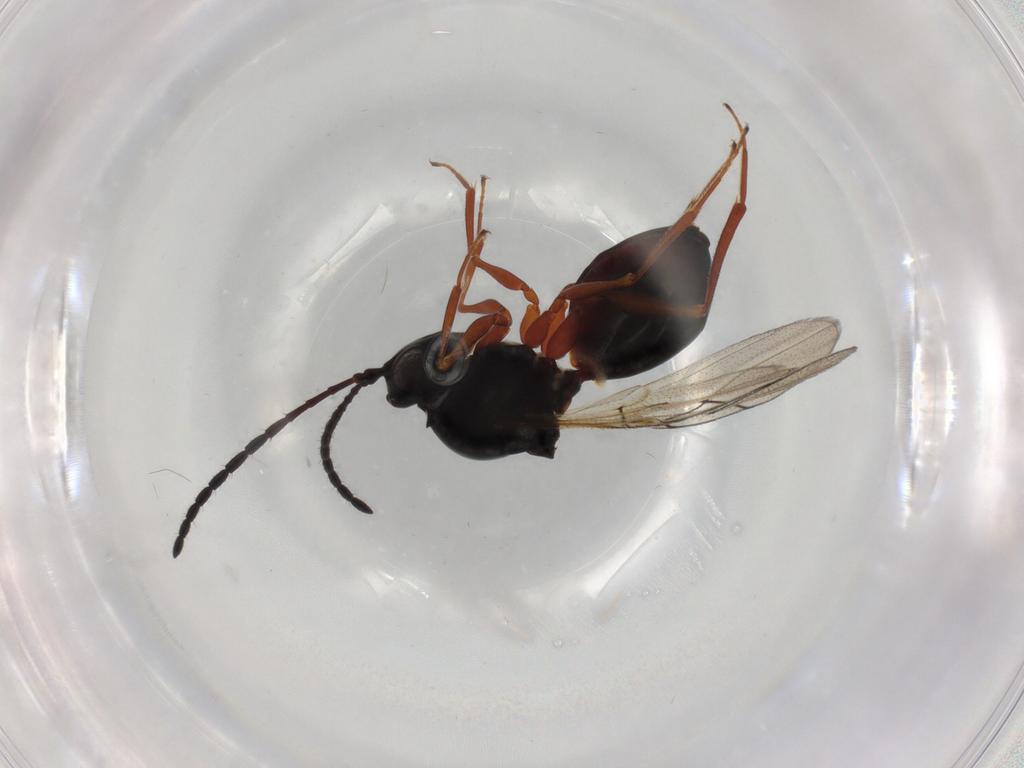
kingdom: Animalia
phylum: Arthropoda
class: Insecta
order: Hymenoptera
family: Figitidae
